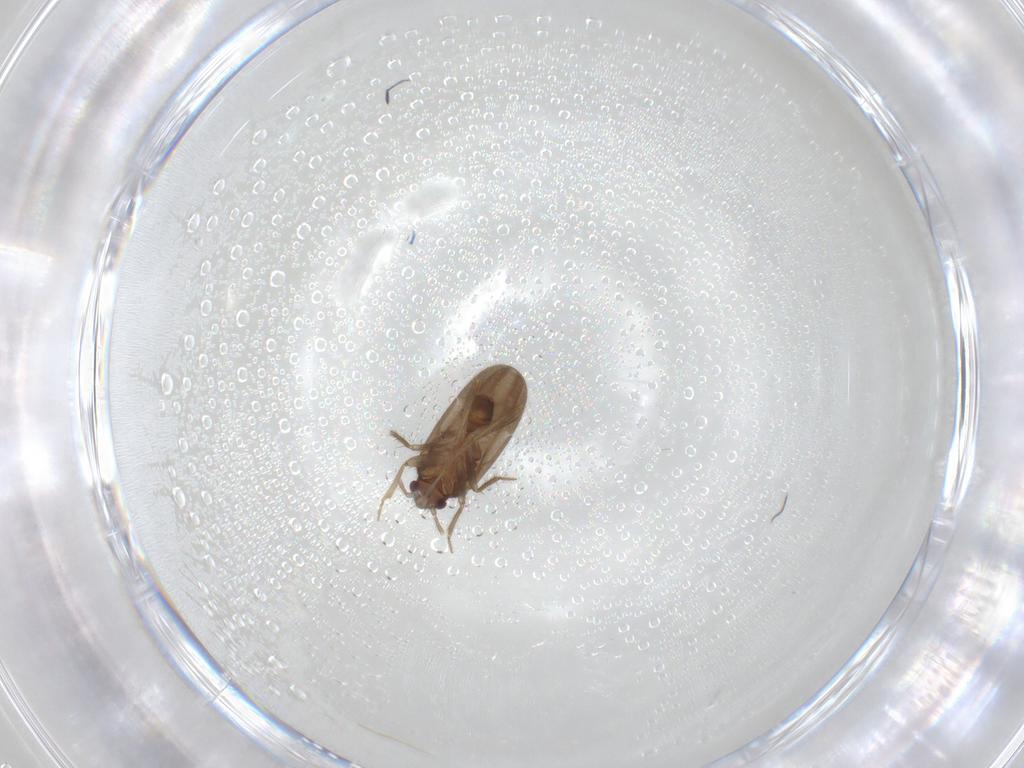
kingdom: Animalia
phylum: Arthropoda
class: Insecta
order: Hemiptera
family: Ceratocombidae
